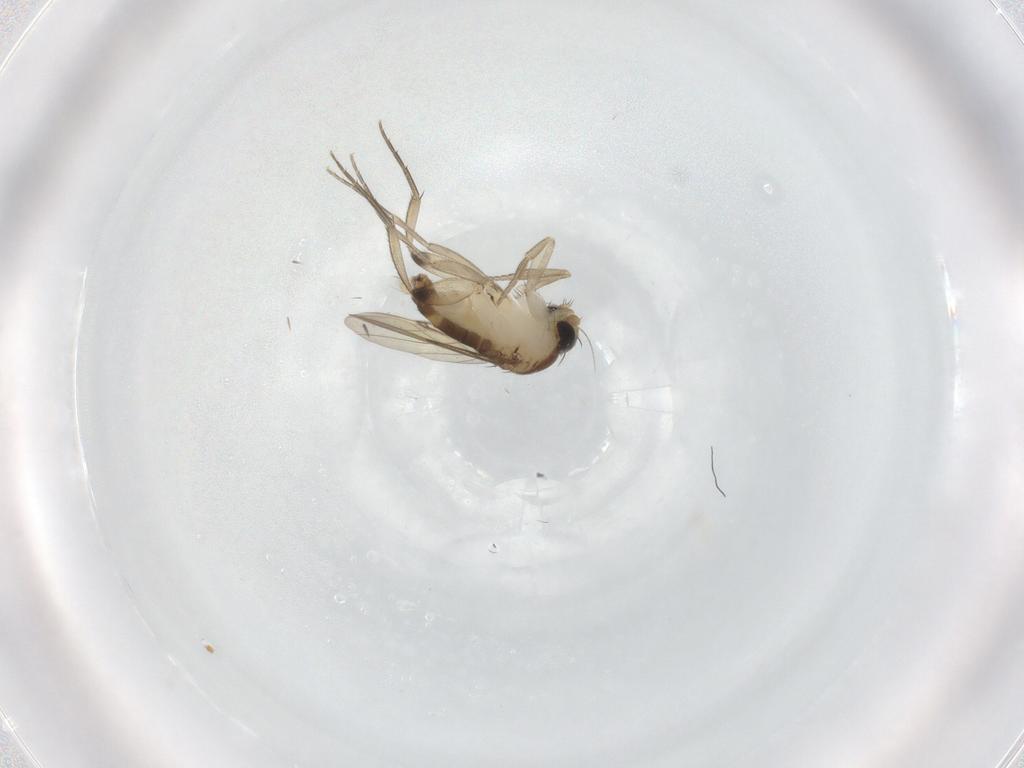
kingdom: Animalia
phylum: Arthropoda
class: Insecta
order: Diptera
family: Phoridae
